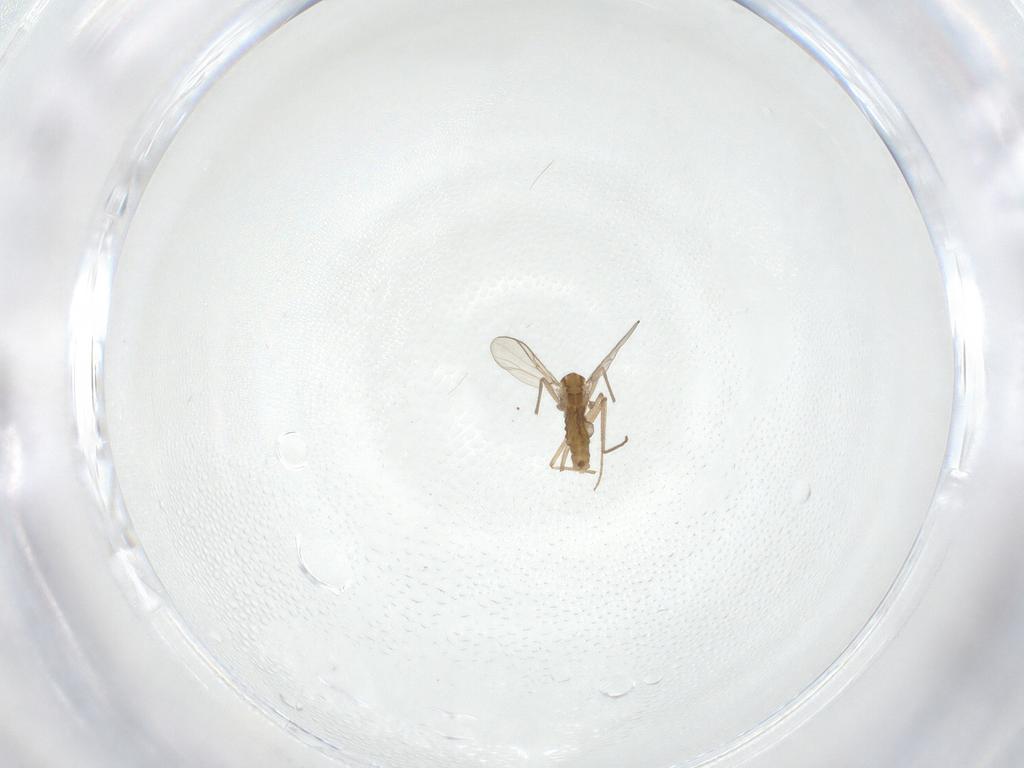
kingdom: Animalia
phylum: Arthropoda
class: Insecta
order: Diptera
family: Chironomidae
